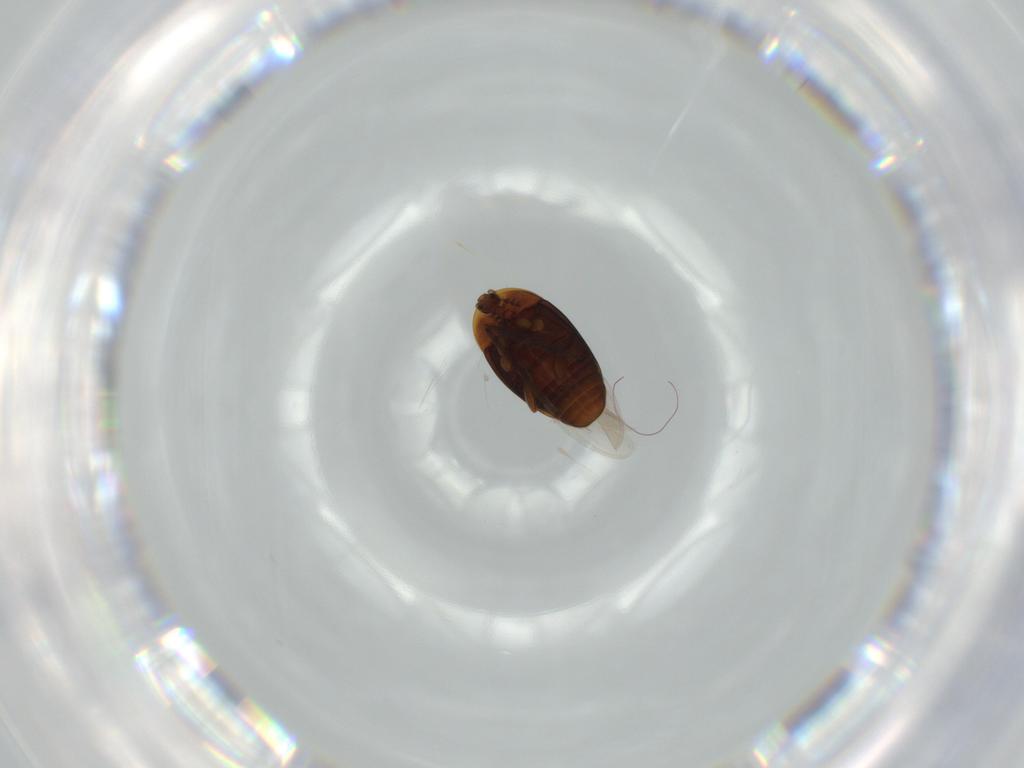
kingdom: Animalia
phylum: Arthropoda
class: Insecta
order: Coleoptera
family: Corylophidae
